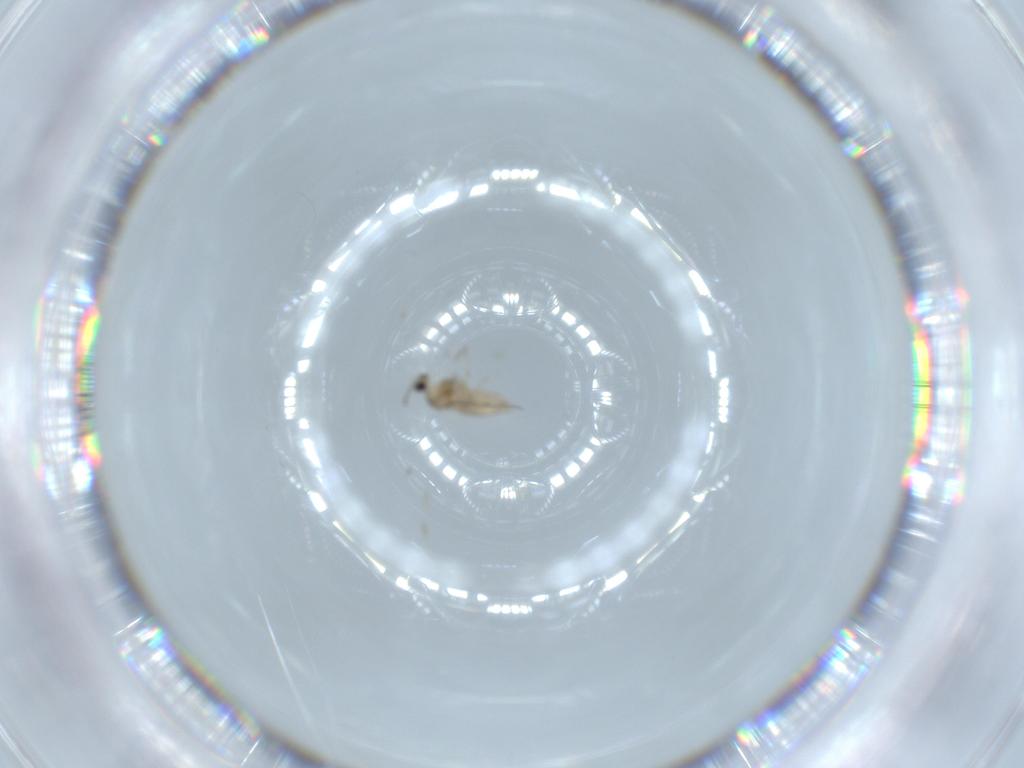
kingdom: Animalia
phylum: Arthropoda
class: Insecta
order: Diptera
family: Cecidomyiidae
